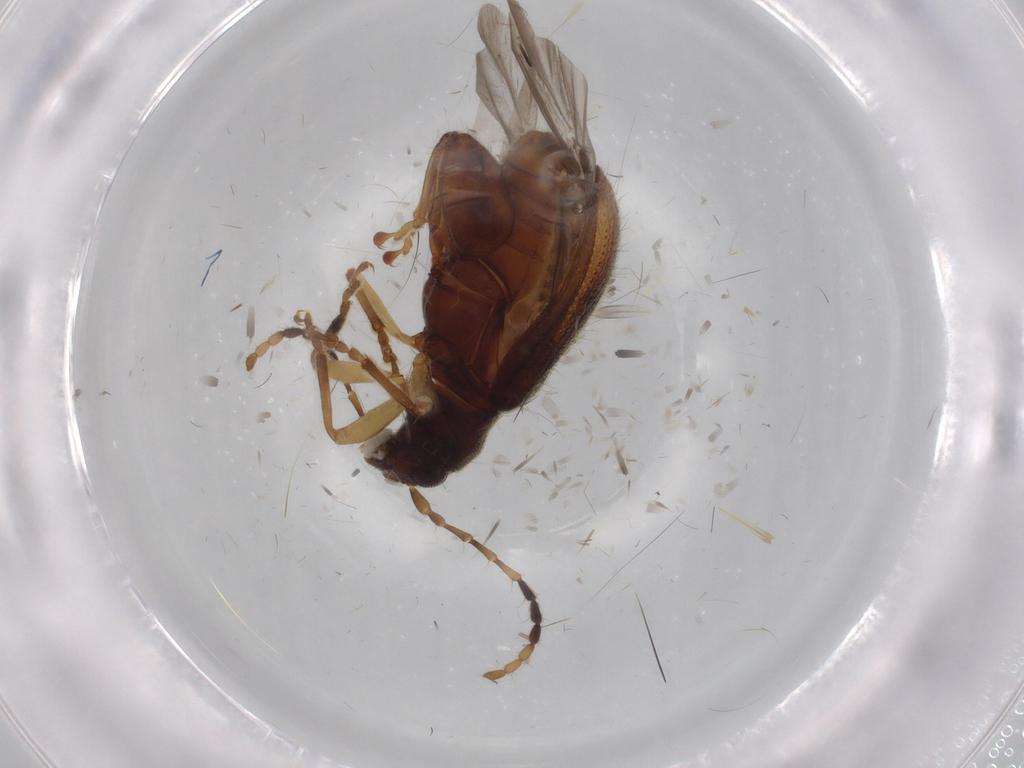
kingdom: Animalia
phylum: Arthropoda
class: Insecta
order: Coleoptera
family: Chrysomelidae
